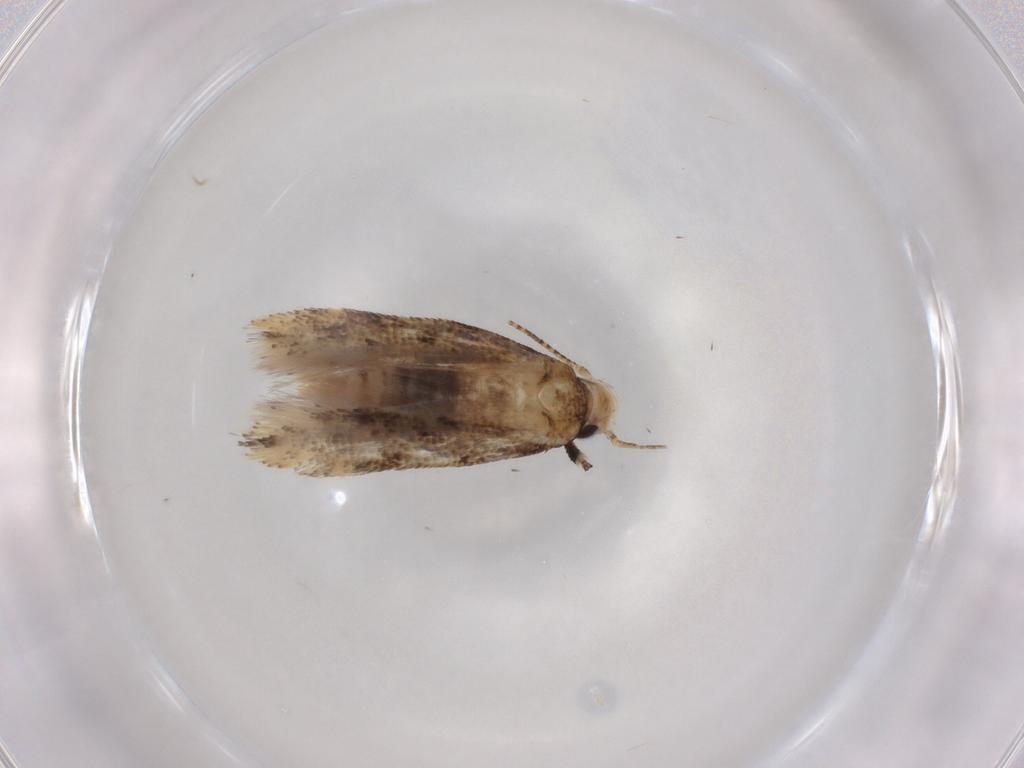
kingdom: Animalia
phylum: Arthropoda
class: Insecta
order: Lepidoptera
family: Gelechiidae
